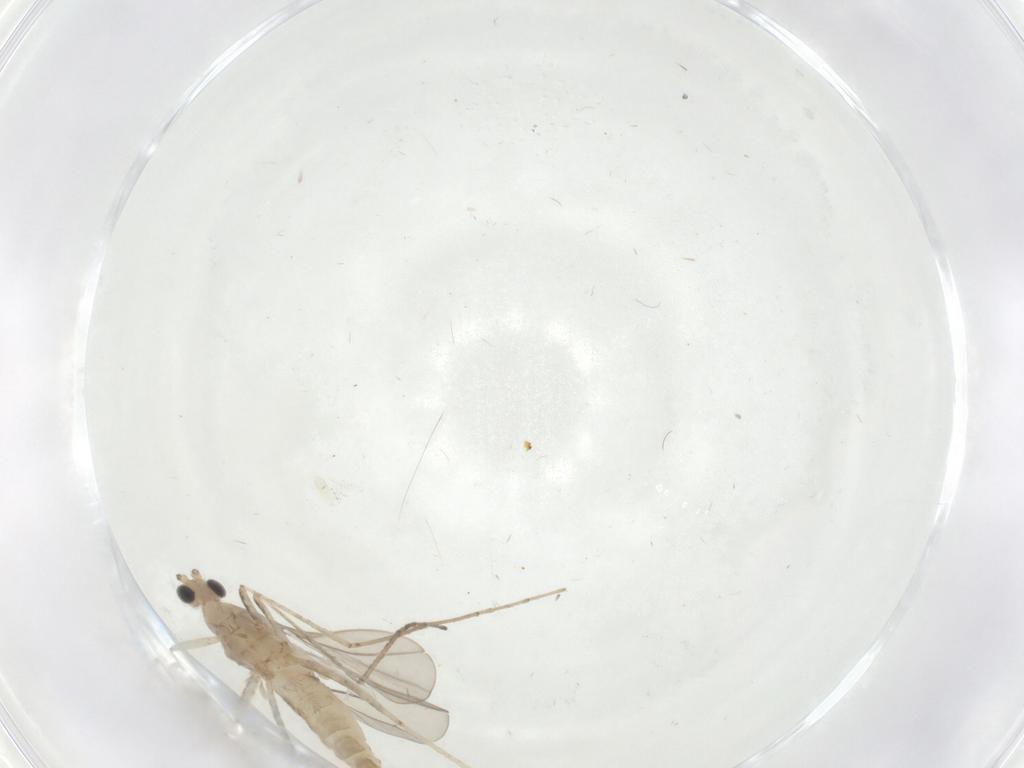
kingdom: Animalia
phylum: Arthropoda
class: Insecta
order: Diptera
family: Cecidomyiidae
